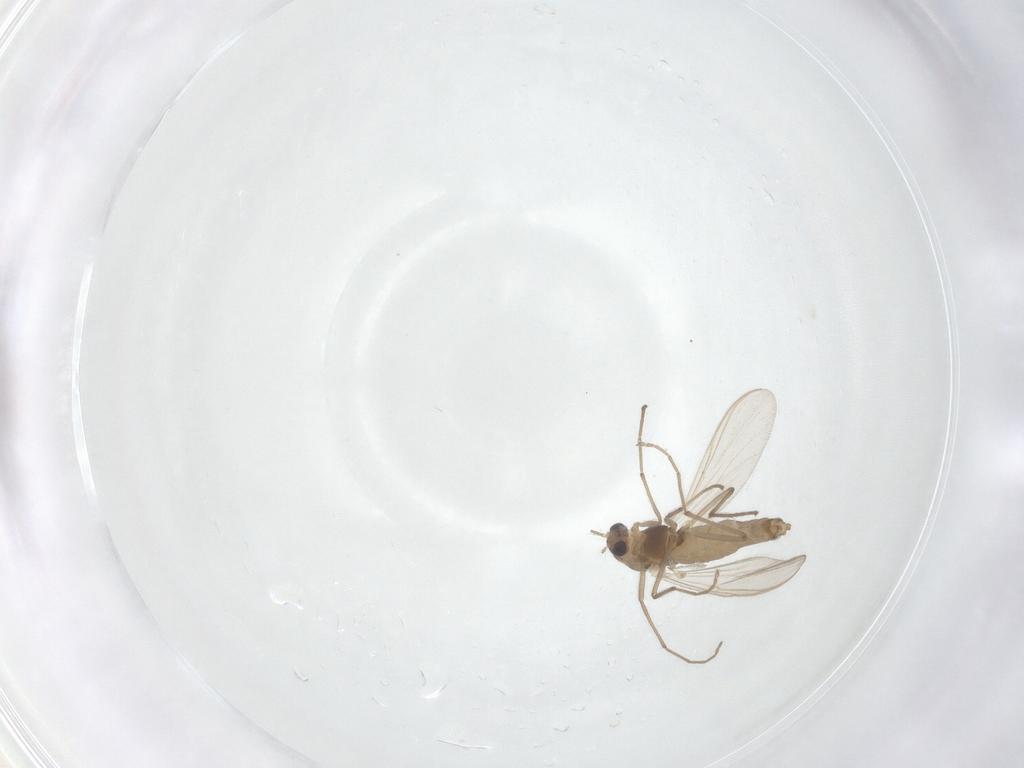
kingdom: Animalia
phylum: Arthropoda
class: Insecta
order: Diptera
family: Chironomidae
